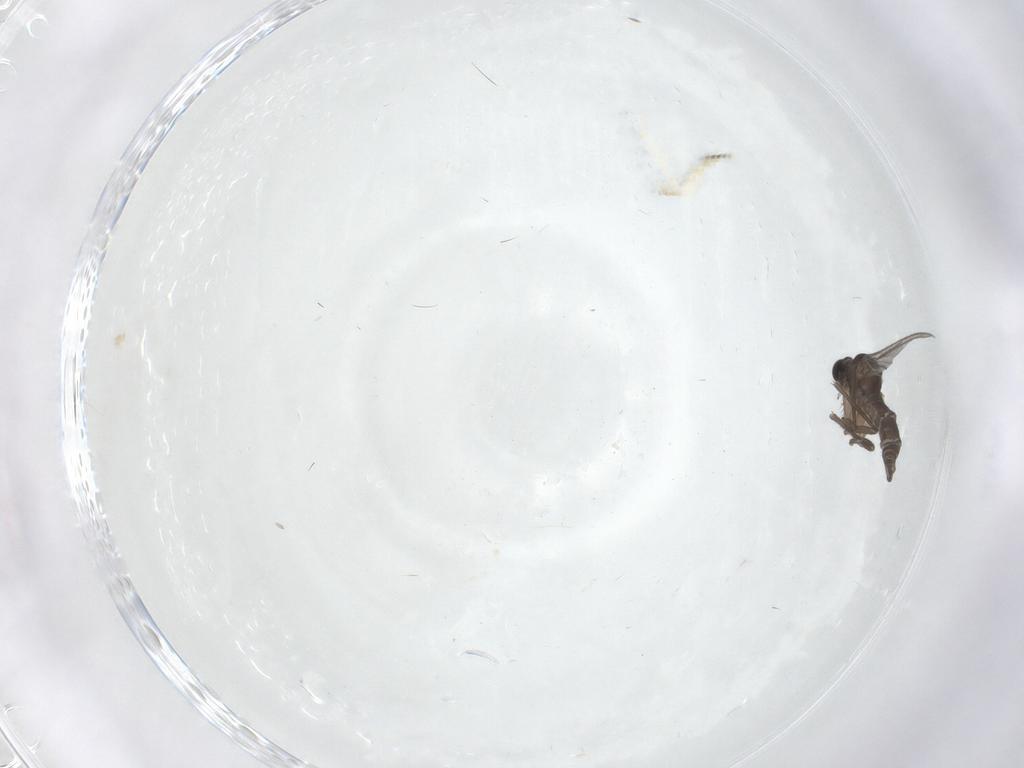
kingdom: Animalia
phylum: Arthropoda
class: Insecta
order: Diptera
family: Sciaridae
